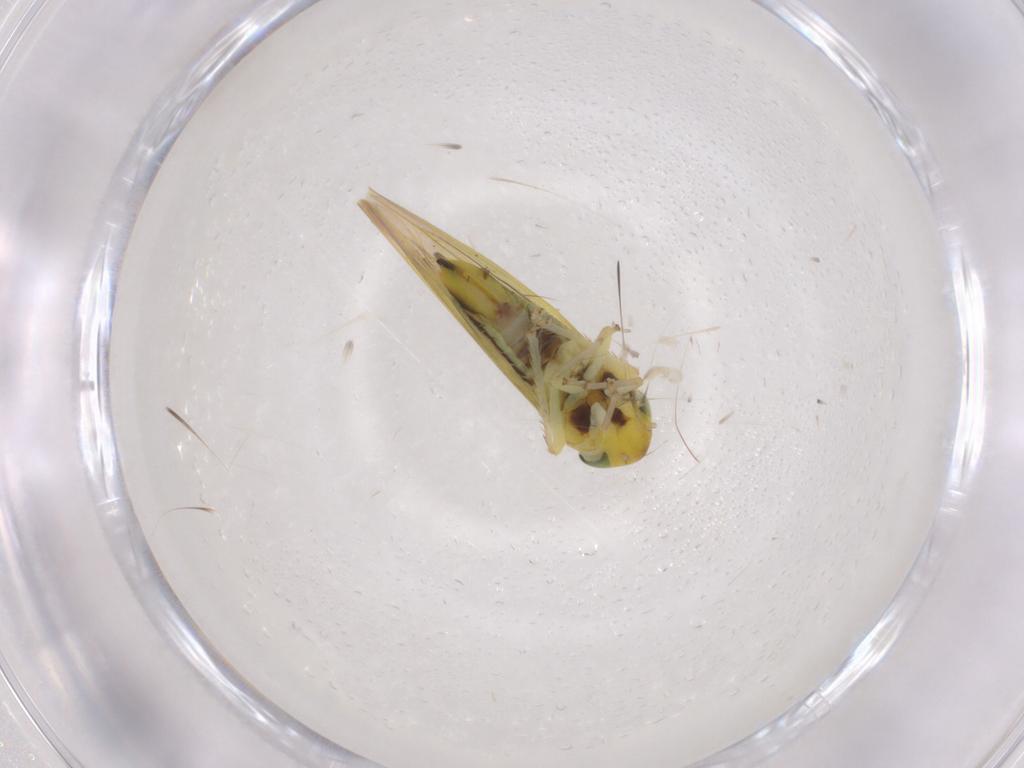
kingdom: Animalia
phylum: Arthropoda
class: Insecta
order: Hemiptera
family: Cicadellidae
